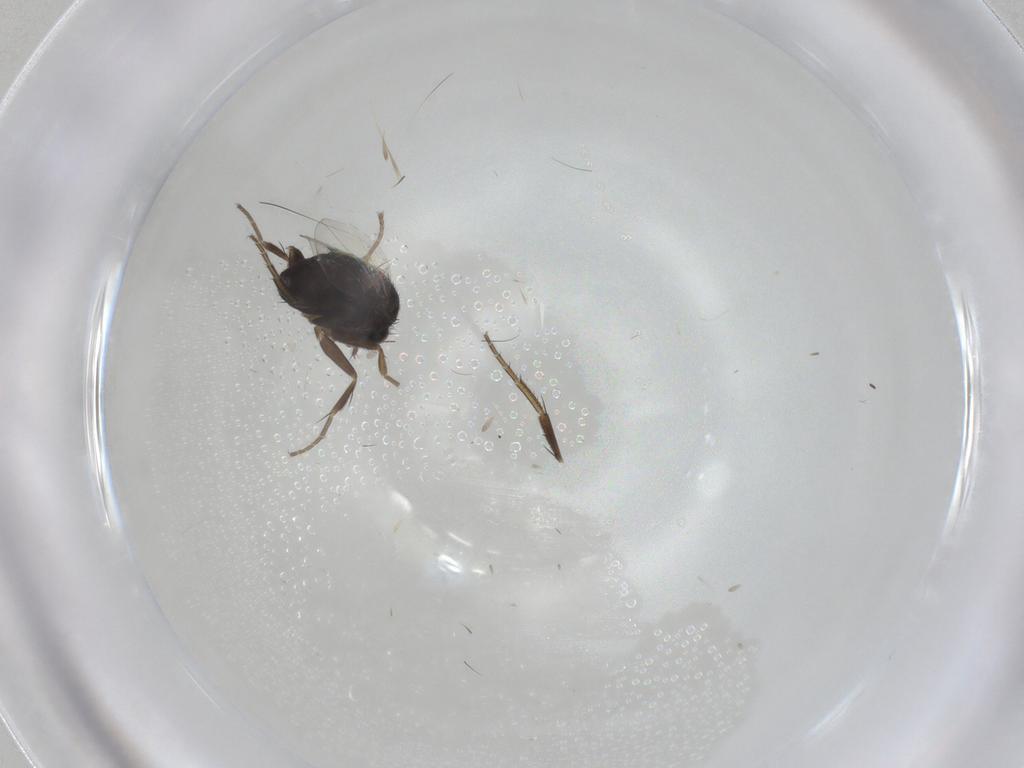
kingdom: Animalia
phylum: Arthropoda
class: Insecta
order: Diptera
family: Phoridae
